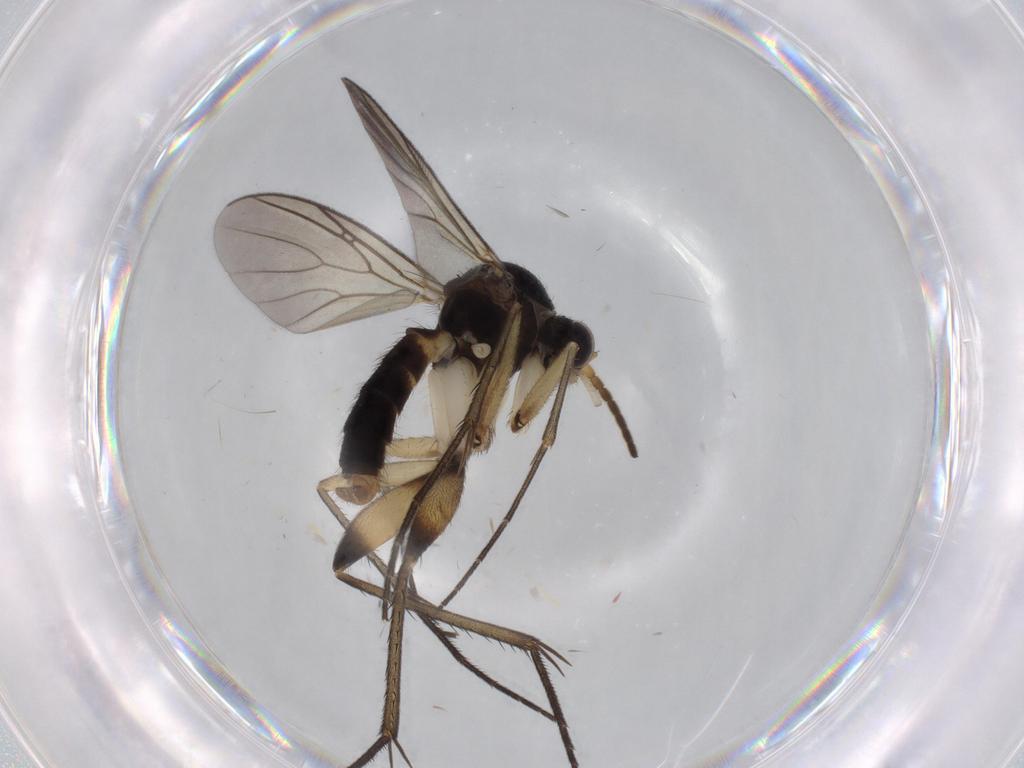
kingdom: Animalia
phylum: Arthropoda
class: Insecta
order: Diptera
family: Mycetophilidae
